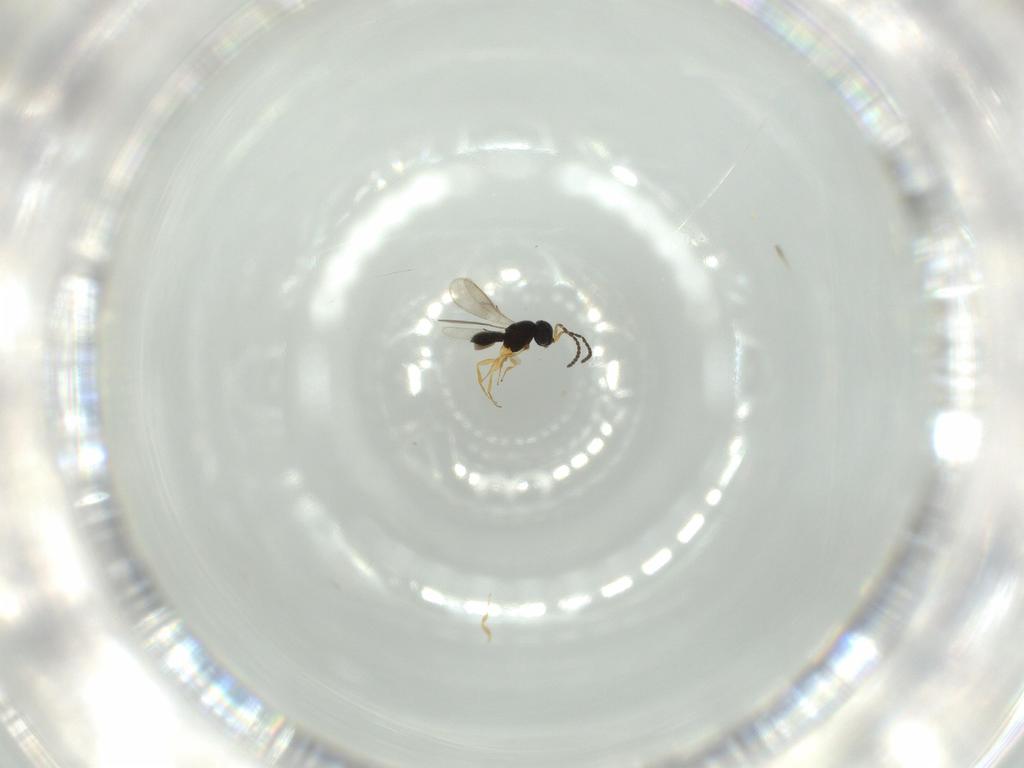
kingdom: Animalia
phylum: Arthropoda
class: Insecta
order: Hymenoptera
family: Scelionidae
